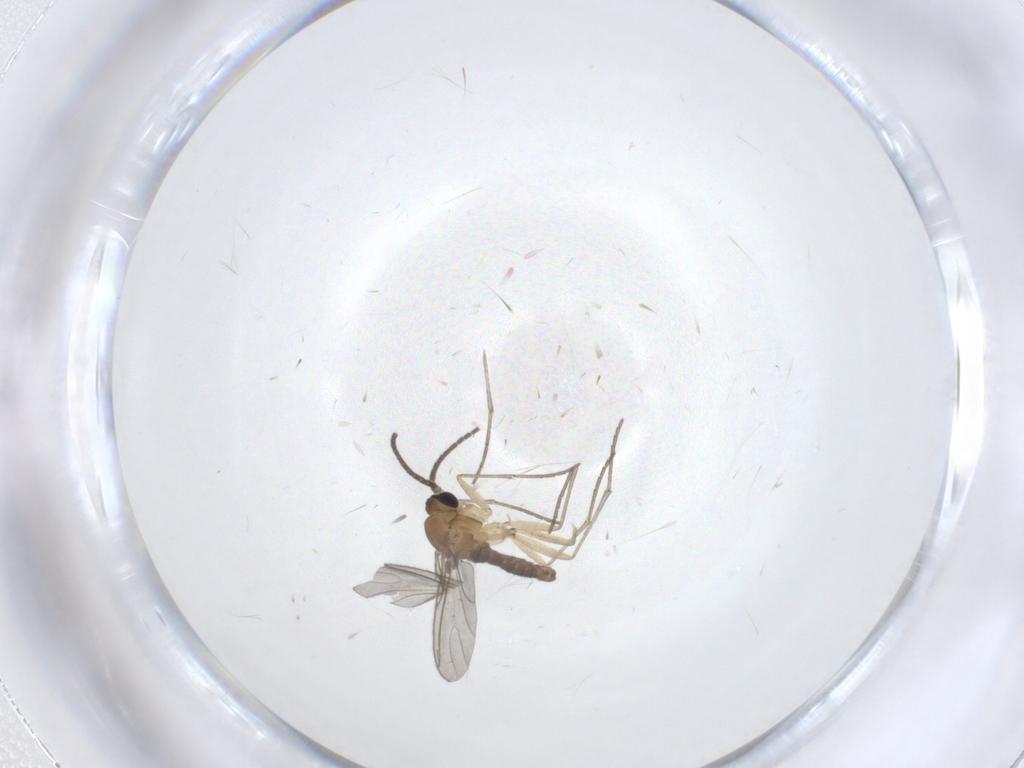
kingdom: Animalia
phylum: Arthropoda
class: Insecta
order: Diptera
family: Sciaridae
